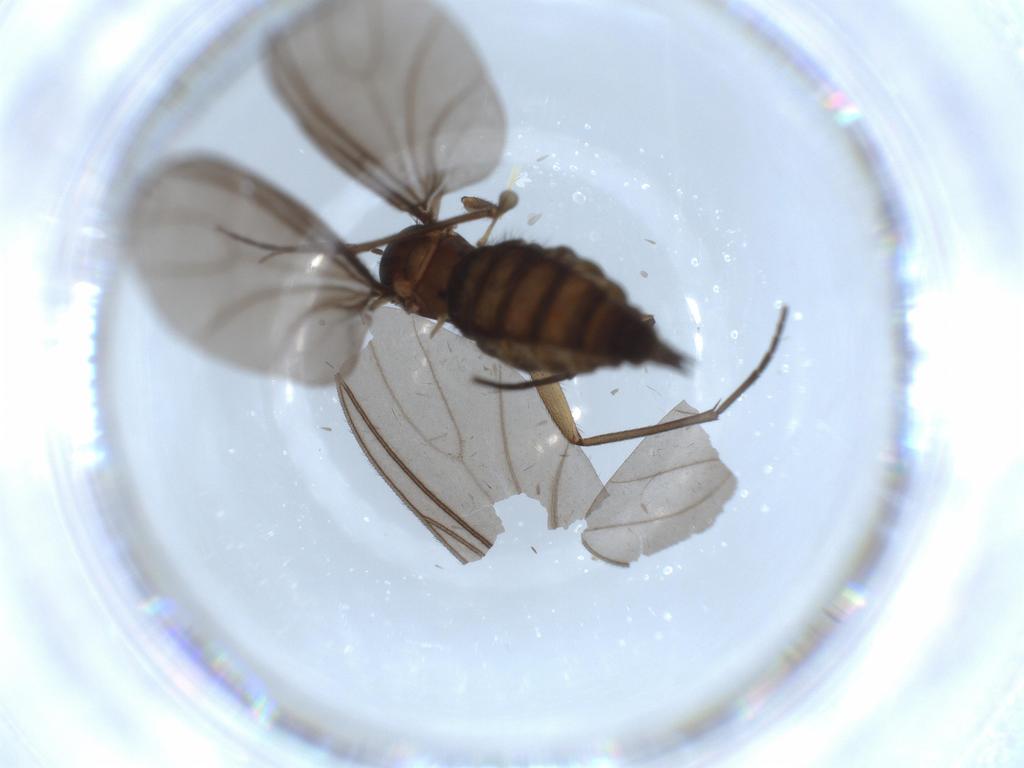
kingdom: Animalia
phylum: Arthropoda
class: Insecta
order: Diptera
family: Sciaridae
